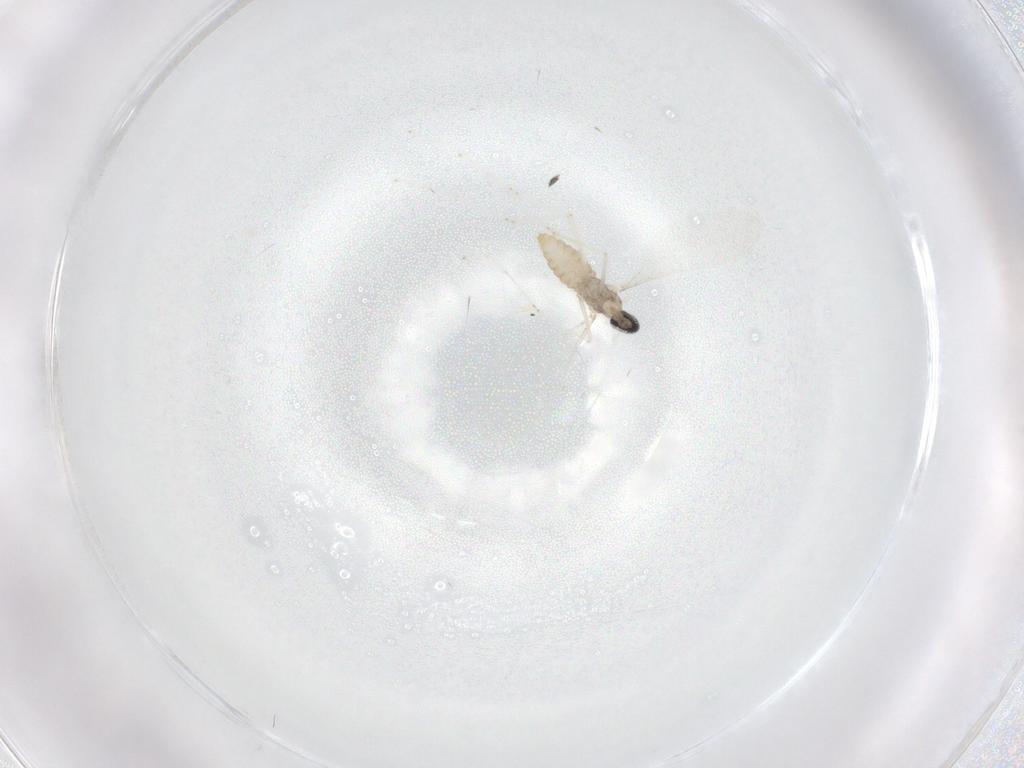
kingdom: Animalia
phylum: Arthropoda
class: Insecta
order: Diptera
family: Cecidomyiidae
